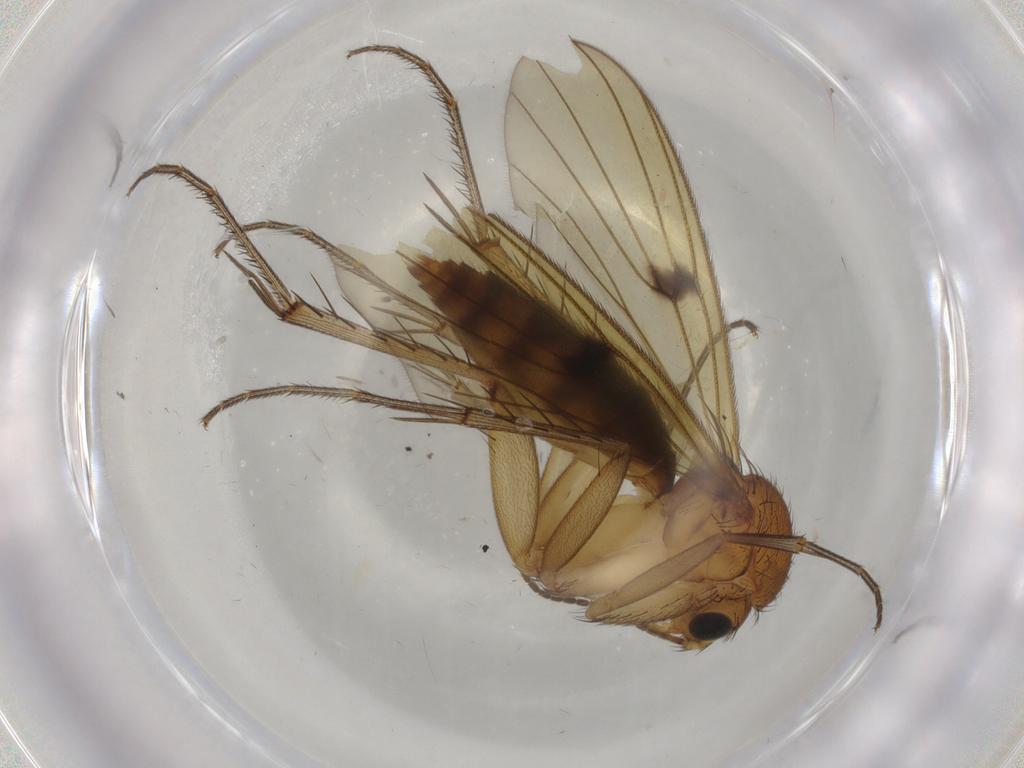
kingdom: Animalia
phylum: Arthropoda
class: Insecta
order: Diptera
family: Mycetophilidae
